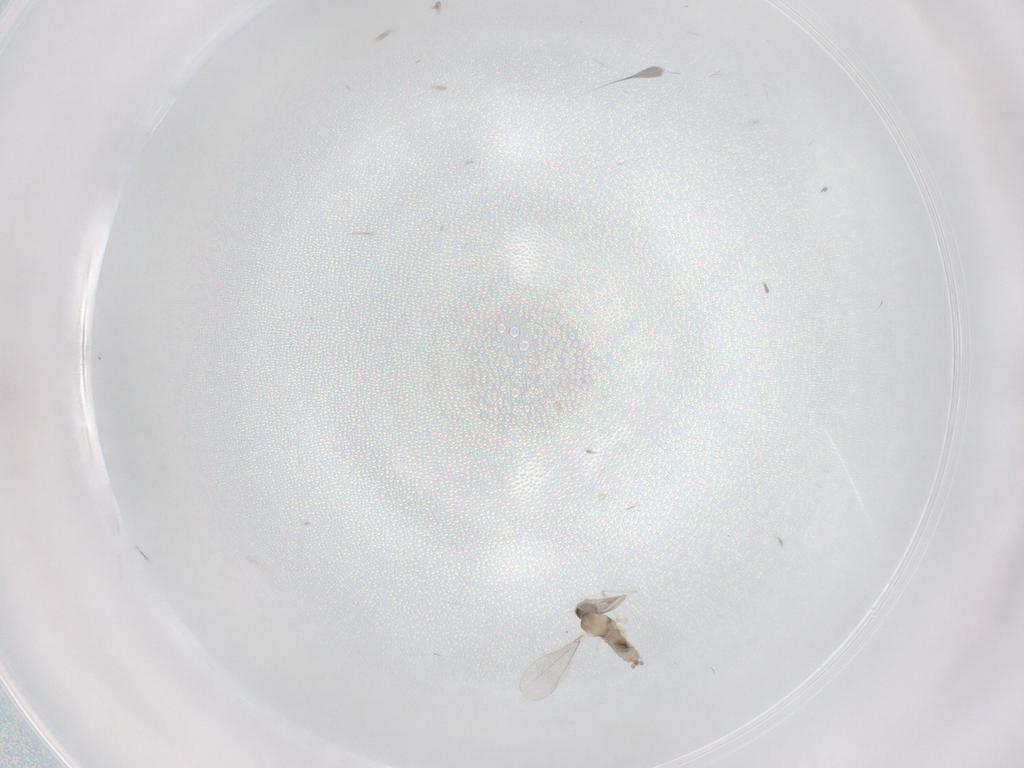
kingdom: Animalia
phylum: Arthropoda
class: Insecta
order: Diptera
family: Cecidomyiidae
